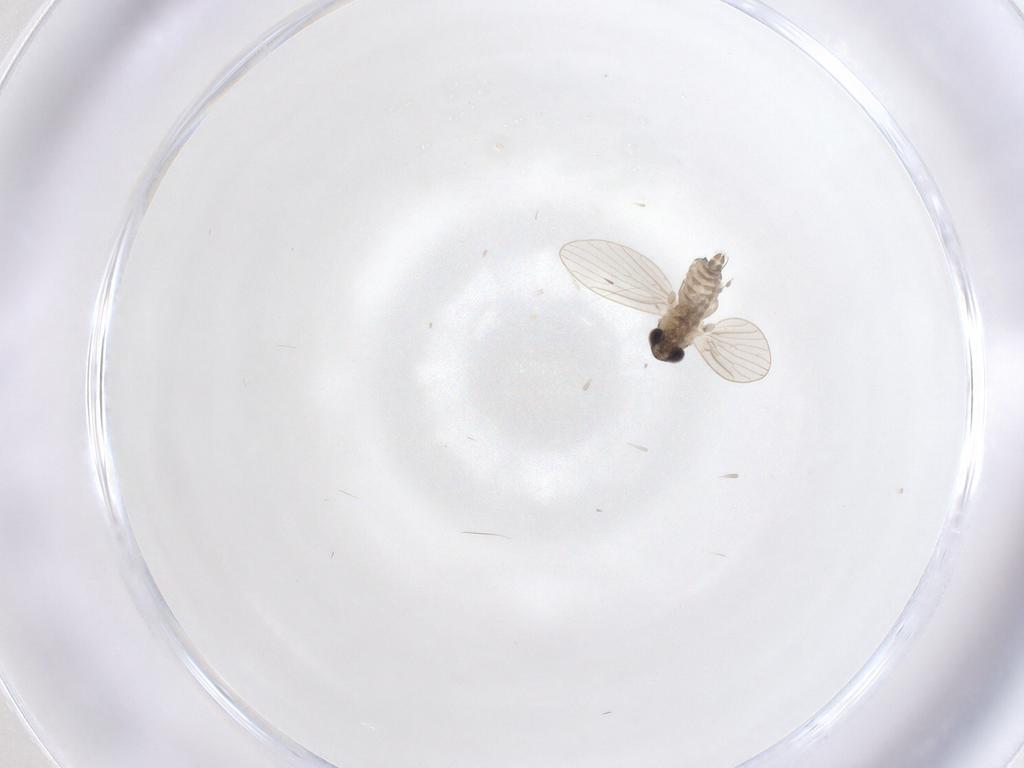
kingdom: Animalia
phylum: Arthropoda
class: Insecta
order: Diptera
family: Psychodidae
